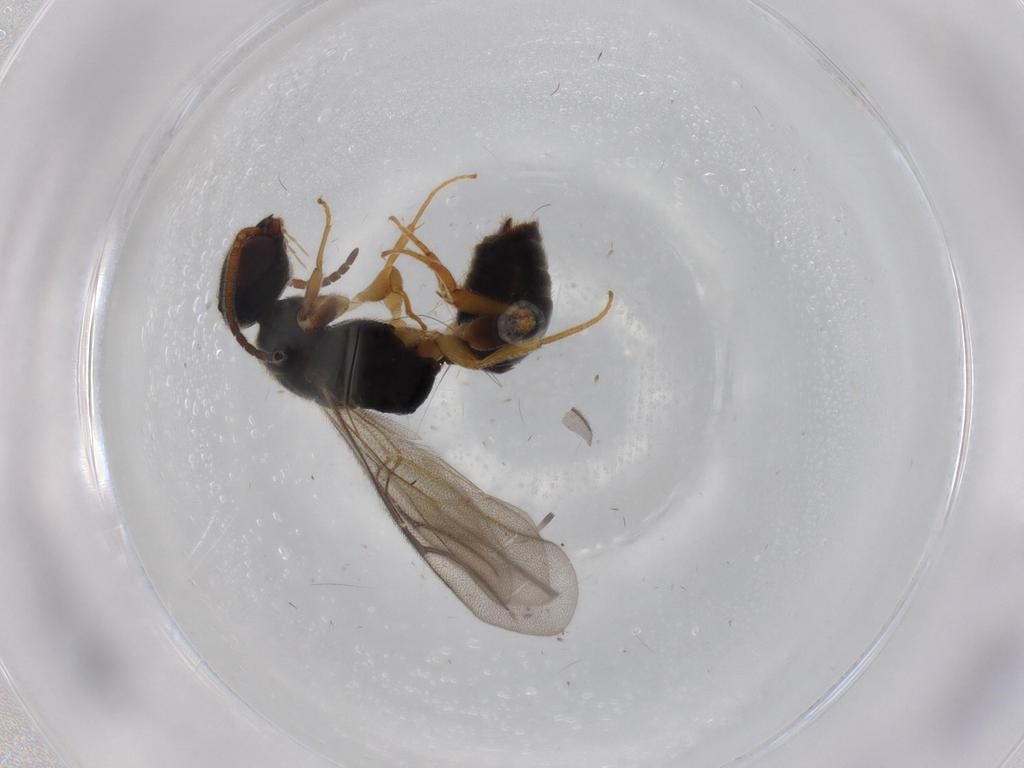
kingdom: Animalia
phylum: Arthropoda
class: Insecta
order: Hymenoptera
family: Bethylidae
